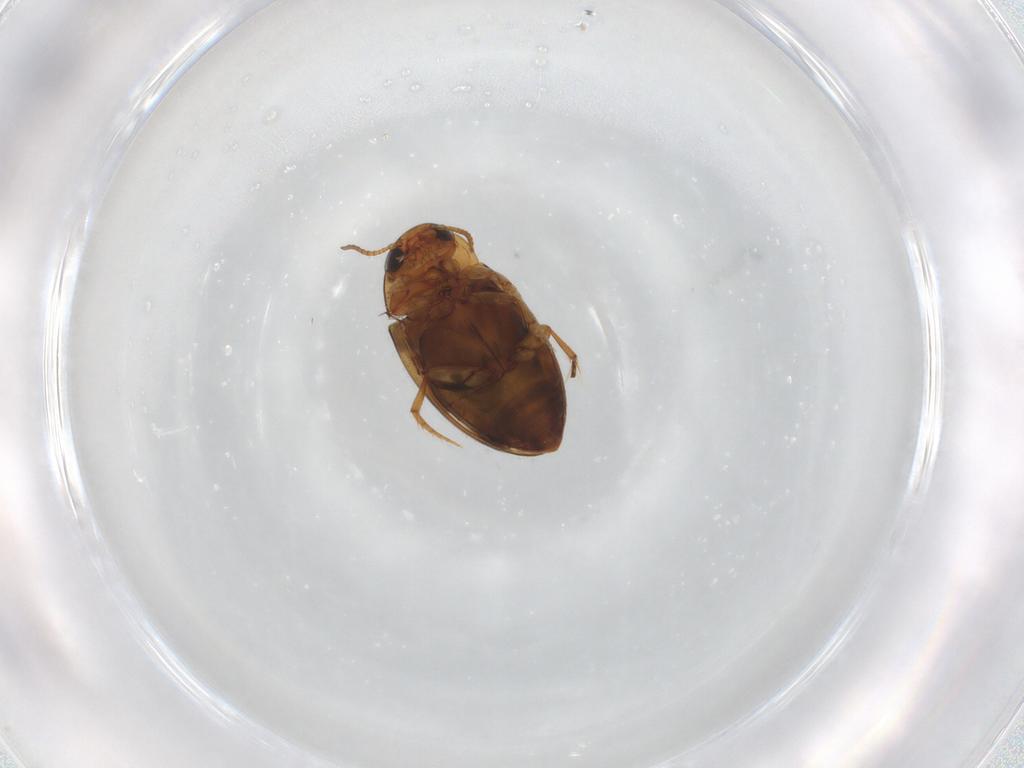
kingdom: Animalia
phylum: Arthropoda
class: Insecta
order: Coleoptera
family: Dytiscidae
